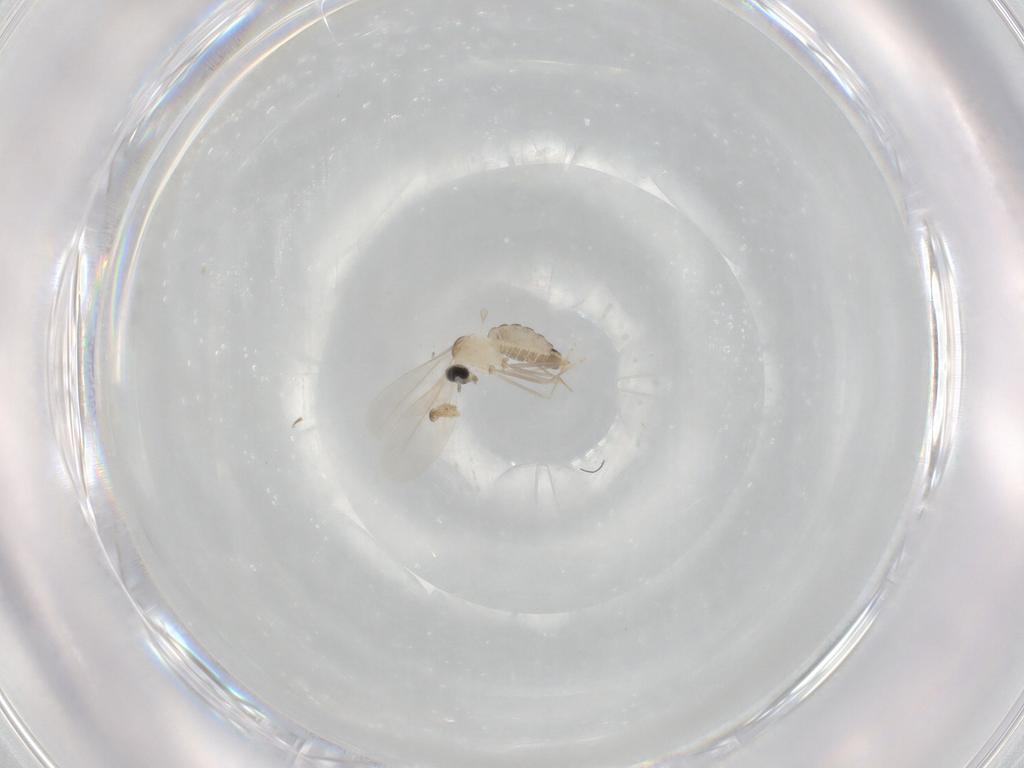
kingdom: Animalia
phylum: Arthropoda
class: Insecta
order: Diptera
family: Cecidomyiidae
